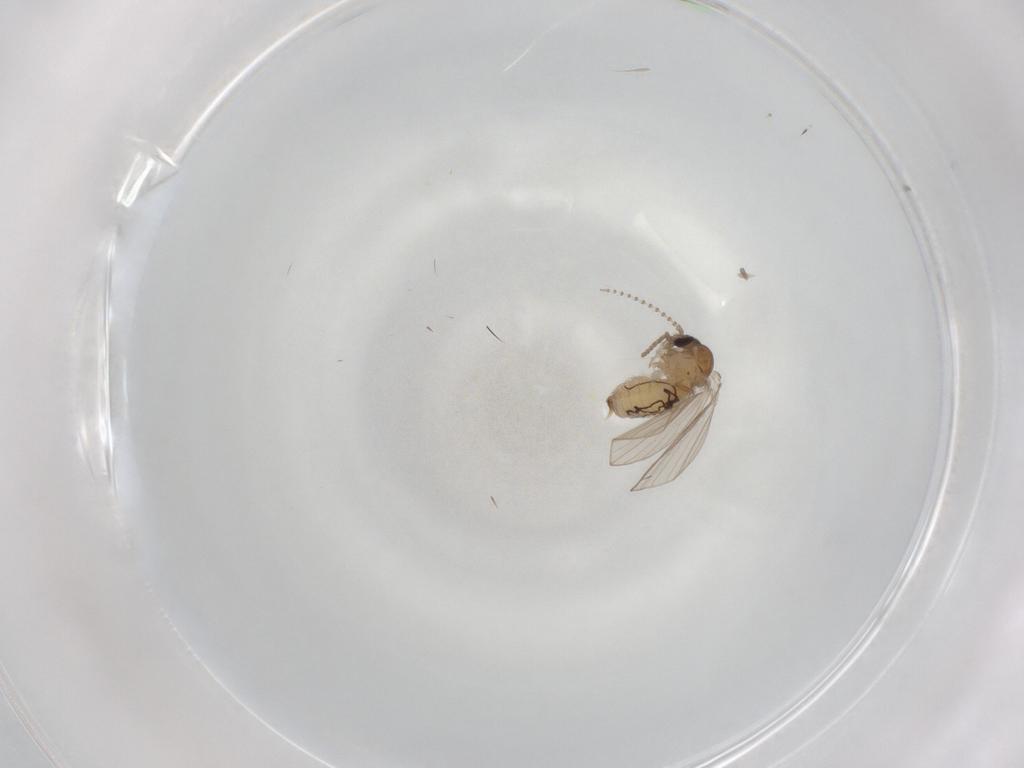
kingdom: Animalia
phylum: Arthropoda
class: Insecta
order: Diptera
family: Psychodidae
